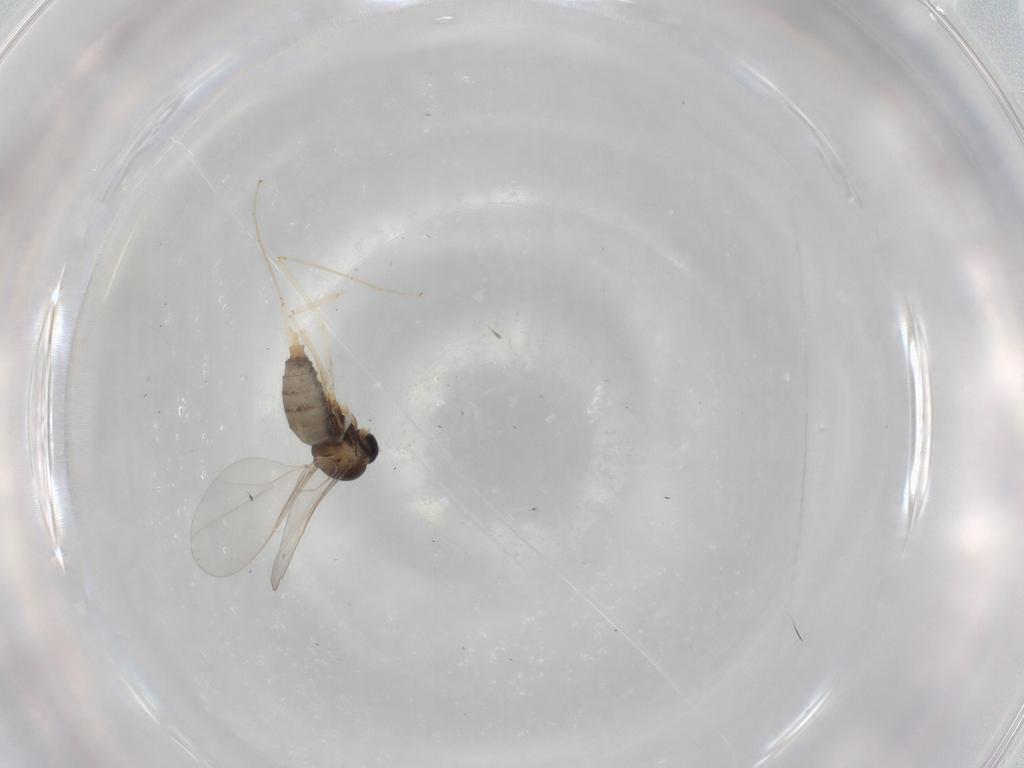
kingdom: Animalia
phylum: Arthropoda
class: Insecta
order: Diptera
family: Cecidomyiidae
